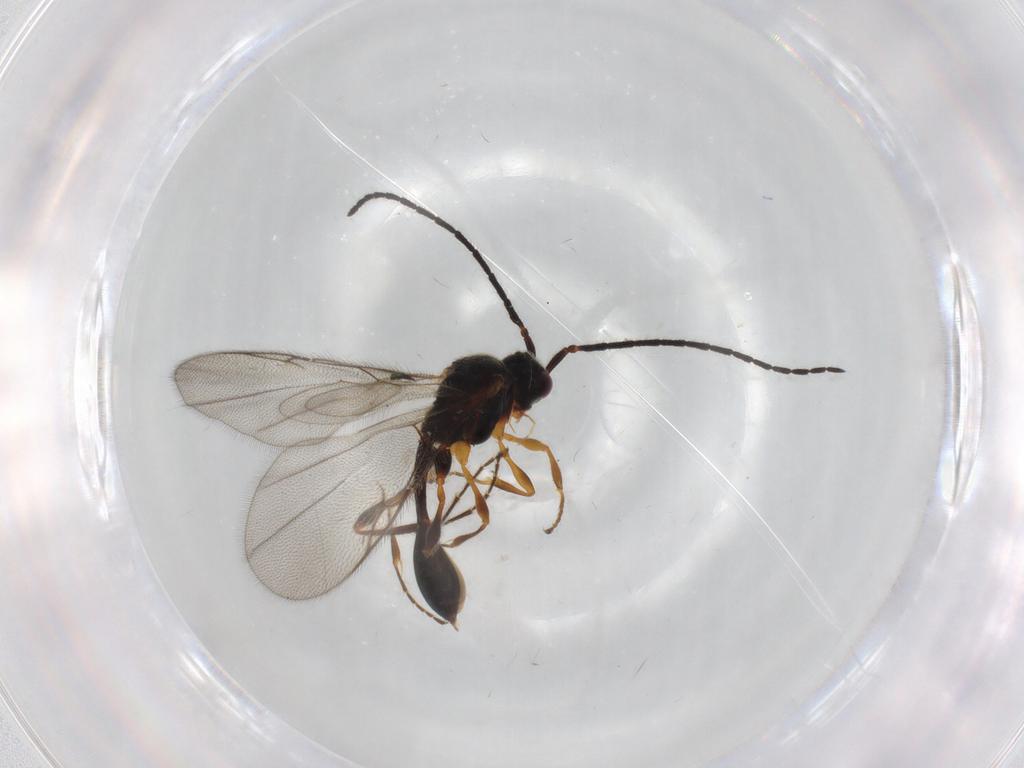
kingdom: Animalia
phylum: Arthropoda
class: Insecta
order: Hymenoptera
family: Diapriidae
